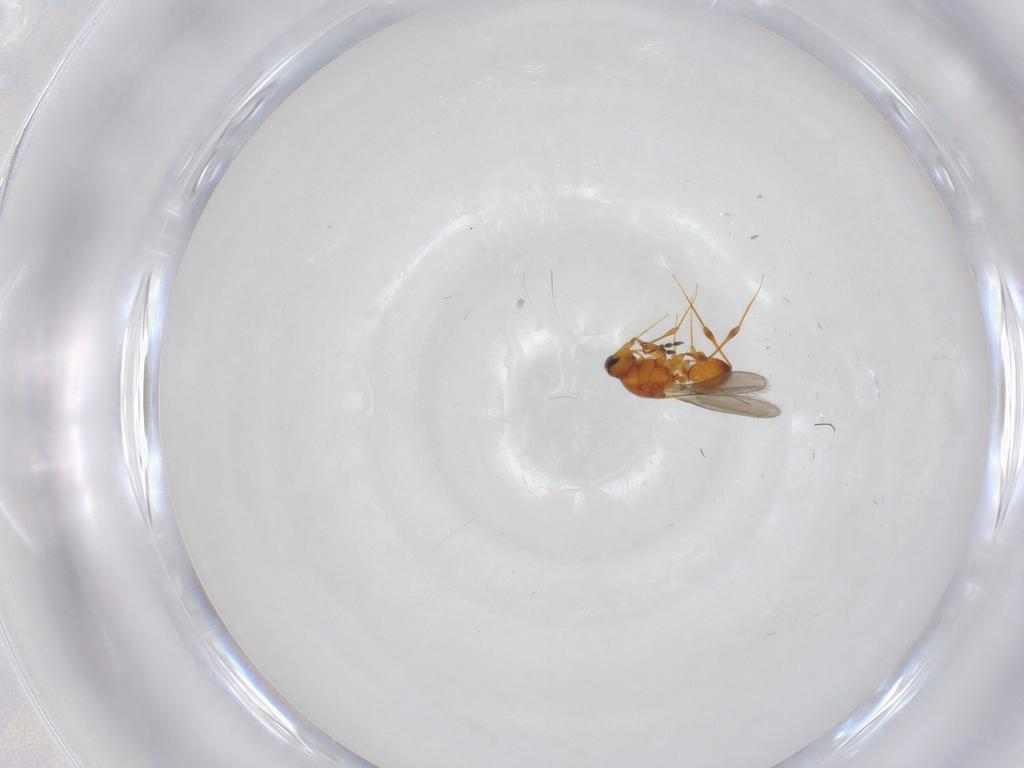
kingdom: Animalia
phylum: Arthropoda
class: Insecta
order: Hymenoptera
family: Platygastridae
